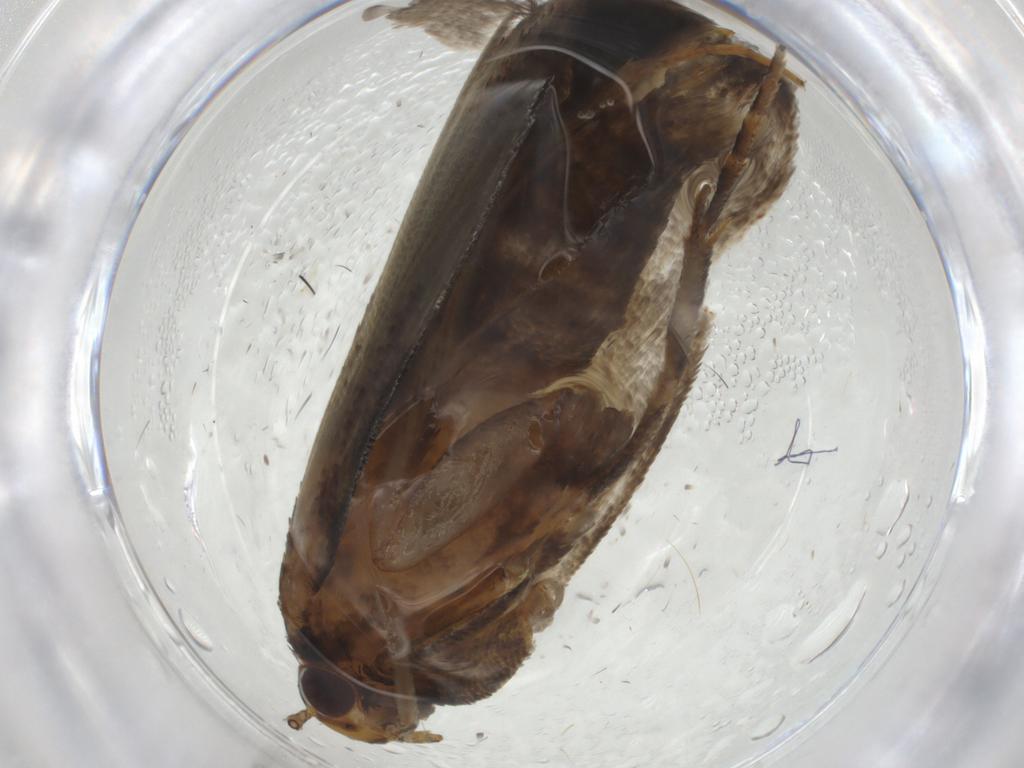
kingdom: Animalia
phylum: Arthropoda
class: Insecta
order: Lepidoptera
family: Gelechiidae
